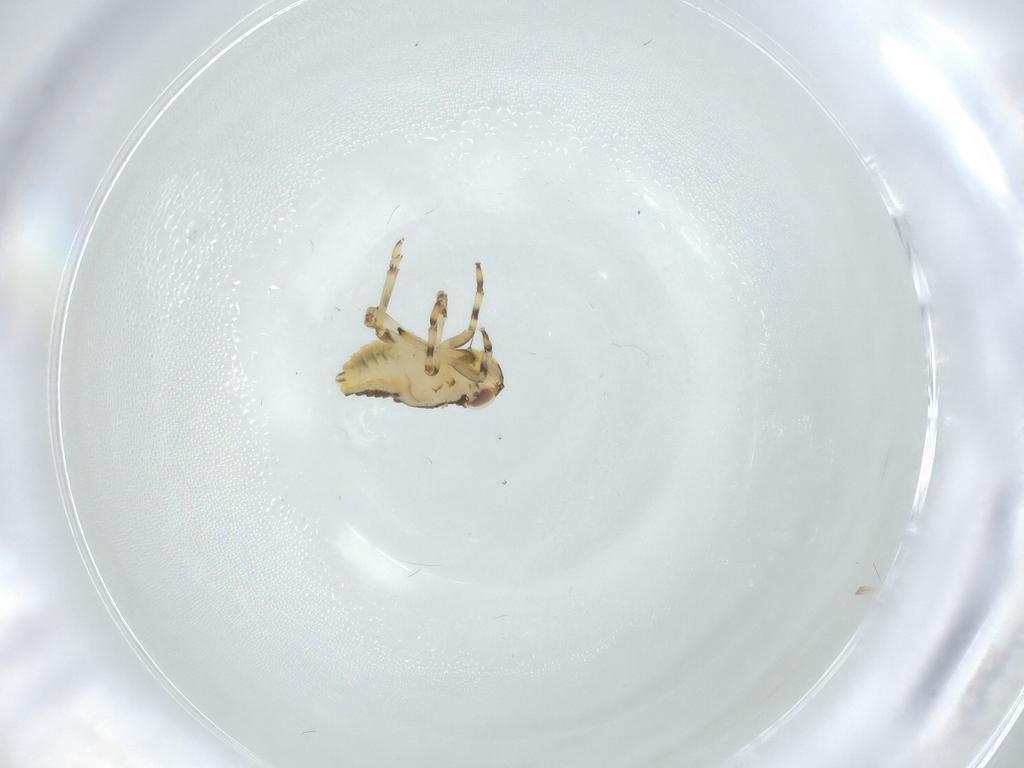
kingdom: Animalia
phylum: Arthropoda
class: Insecta
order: Hemiptera
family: Issidae
